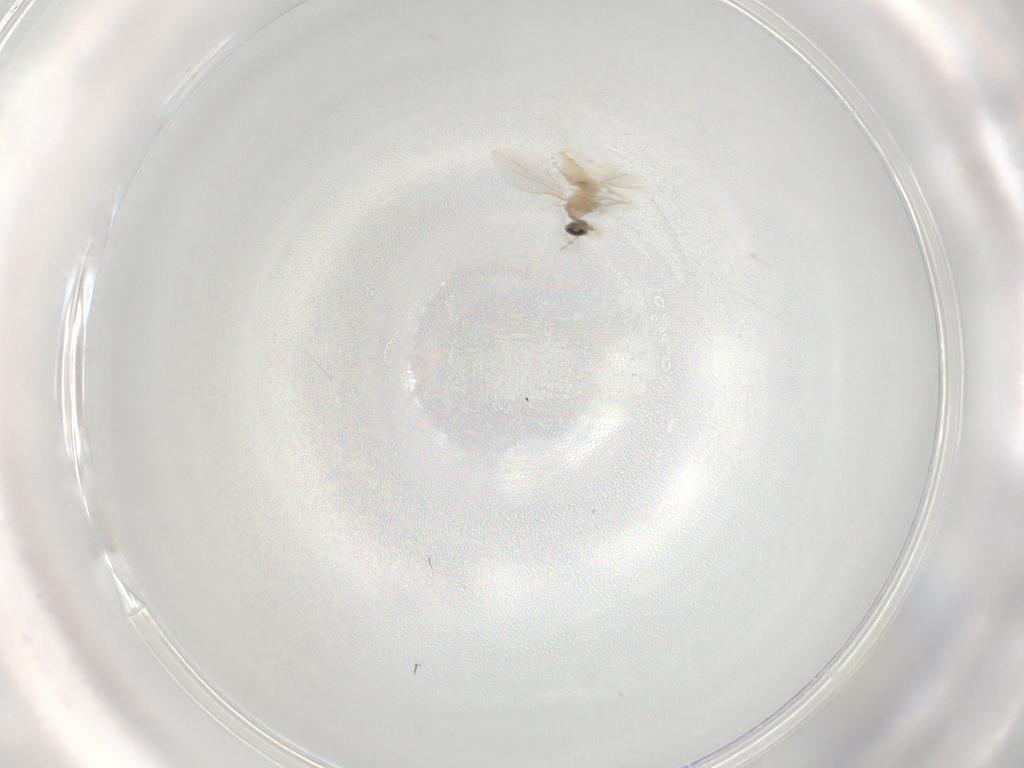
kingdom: Animalia
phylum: Arthropoda
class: Insecta
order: Diptera
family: Cecidomyiidae
